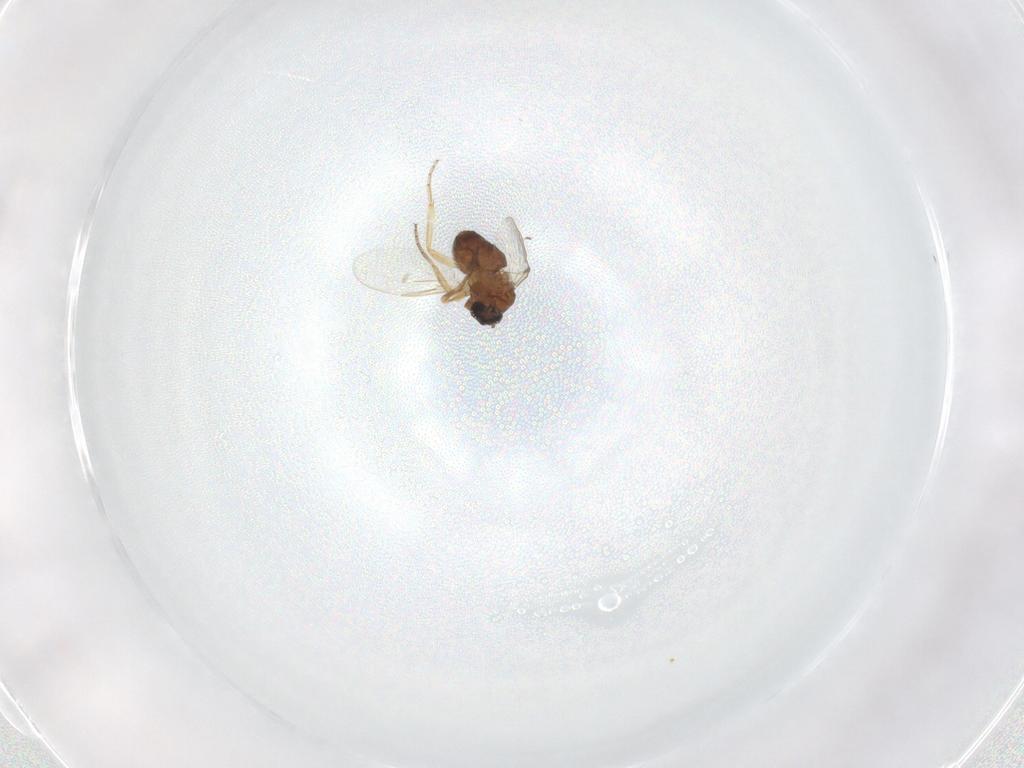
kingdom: Animalia
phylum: Arthropoda
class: Insecta
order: Diptera
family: Ceratopogonidae
